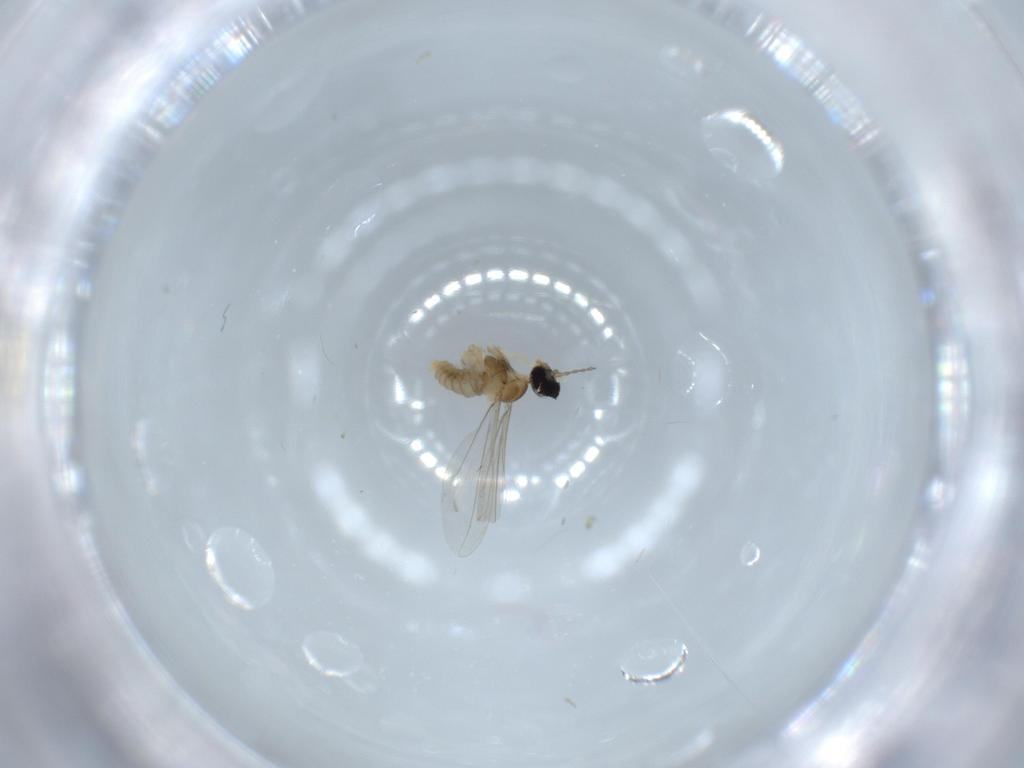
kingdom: Animalia
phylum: Arthropoda
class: Insecta
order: Diptera
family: Cecidomyiidae
